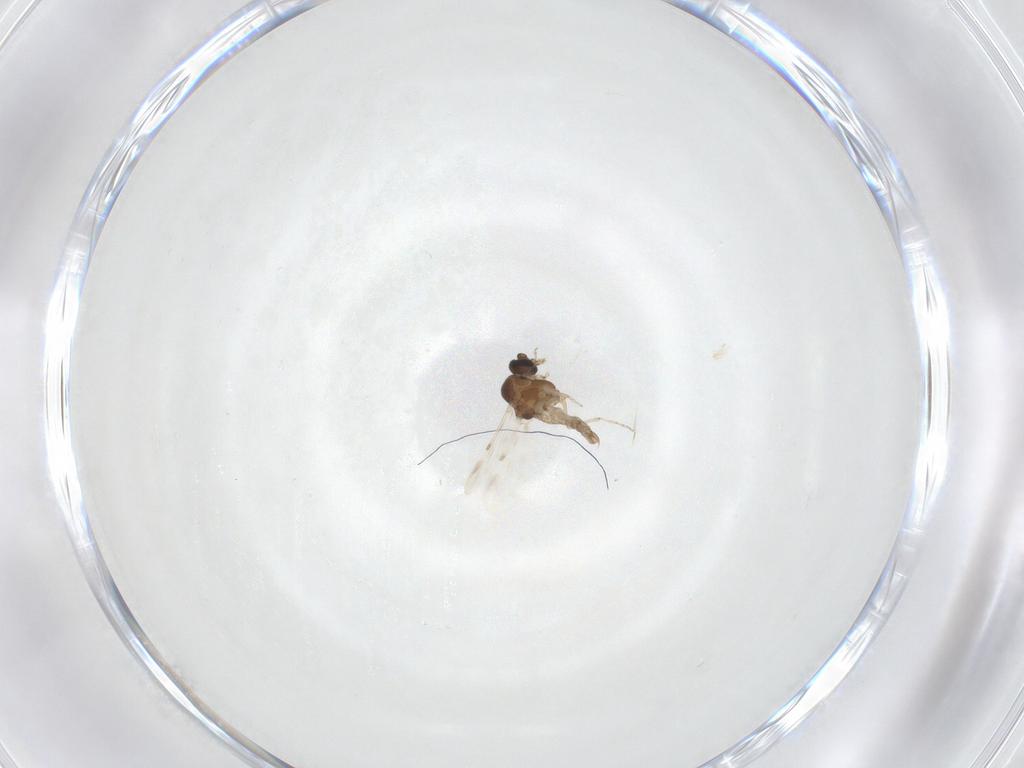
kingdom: Animalia
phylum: Arthropoda
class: Insecta
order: Diptera
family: Ceratopogonidae
